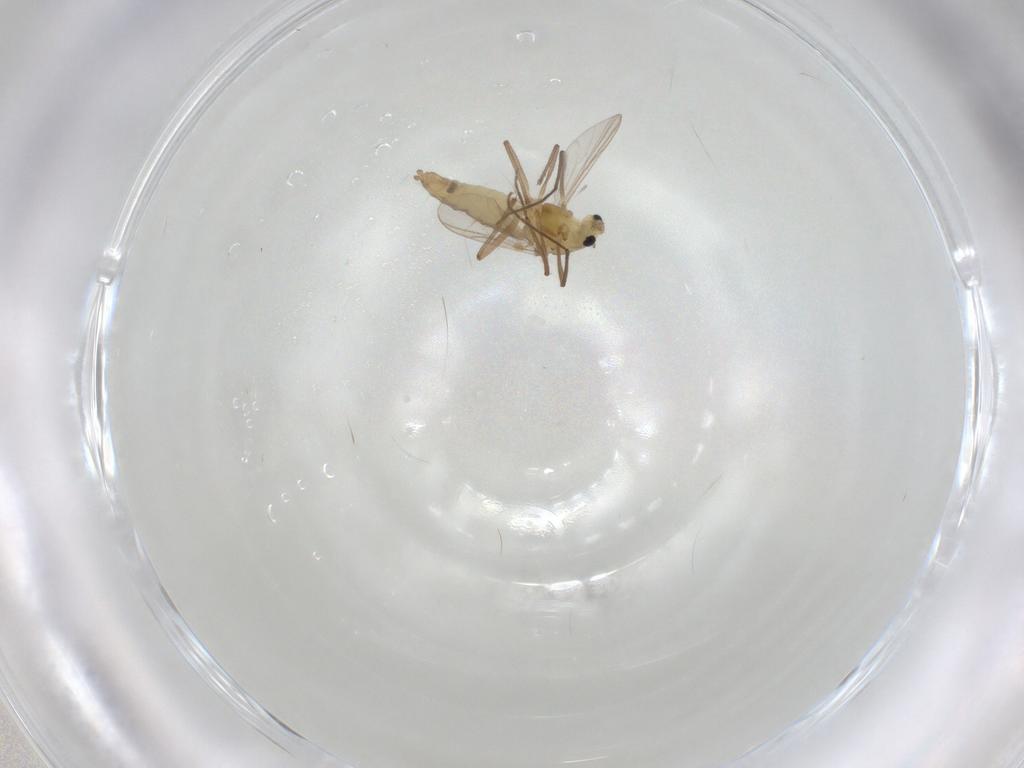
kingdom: Animalia
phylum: Arthropoda
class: Insecta
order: Diptera
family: Chironomidae
